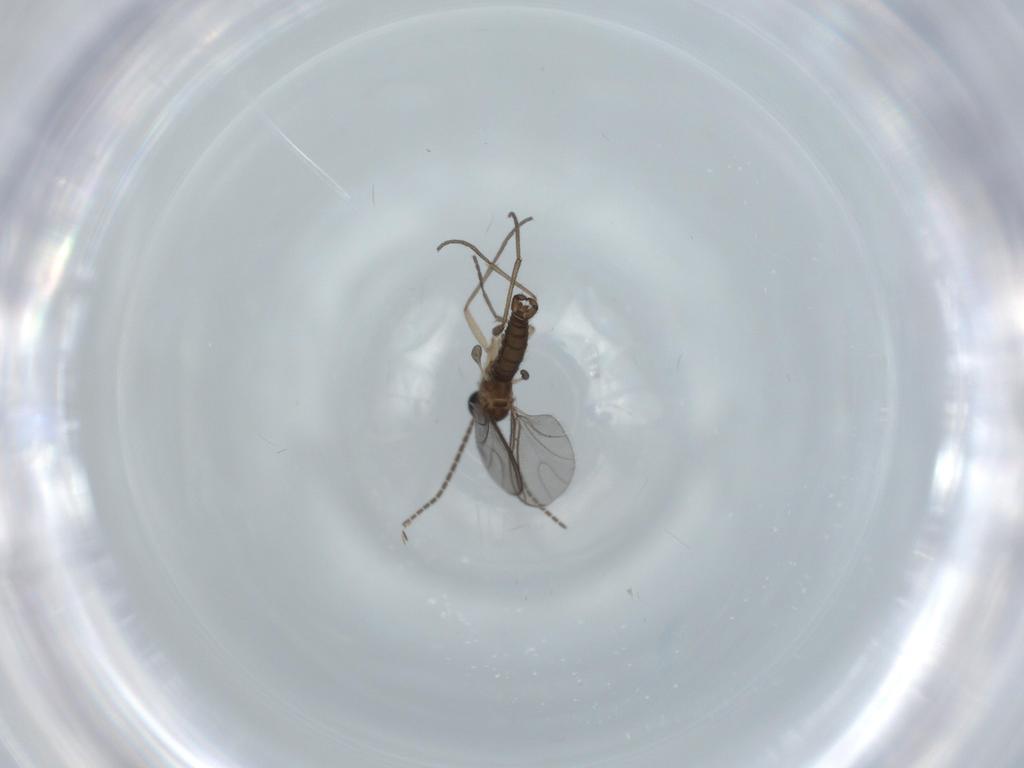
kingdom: Animalia
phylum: Arthropoda
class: Insecta
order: Diptera
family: Sciaridae
